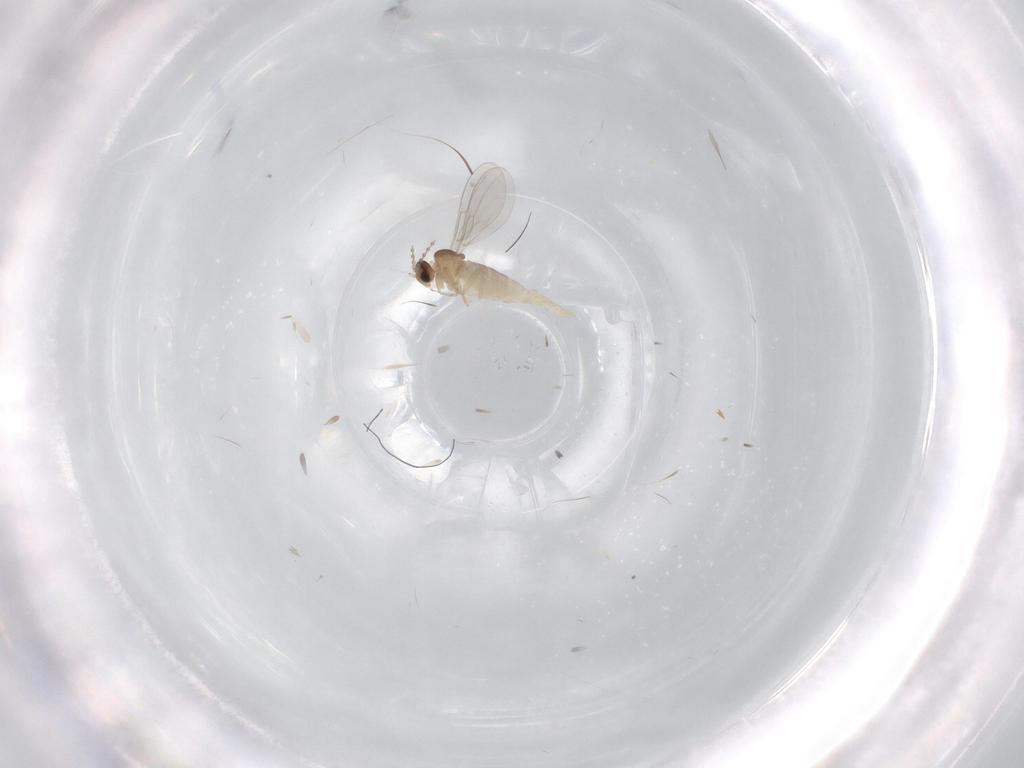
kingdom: Animalia
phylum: Arthropoda
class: Insecta
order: Diptera
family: Cecidomyiidae
